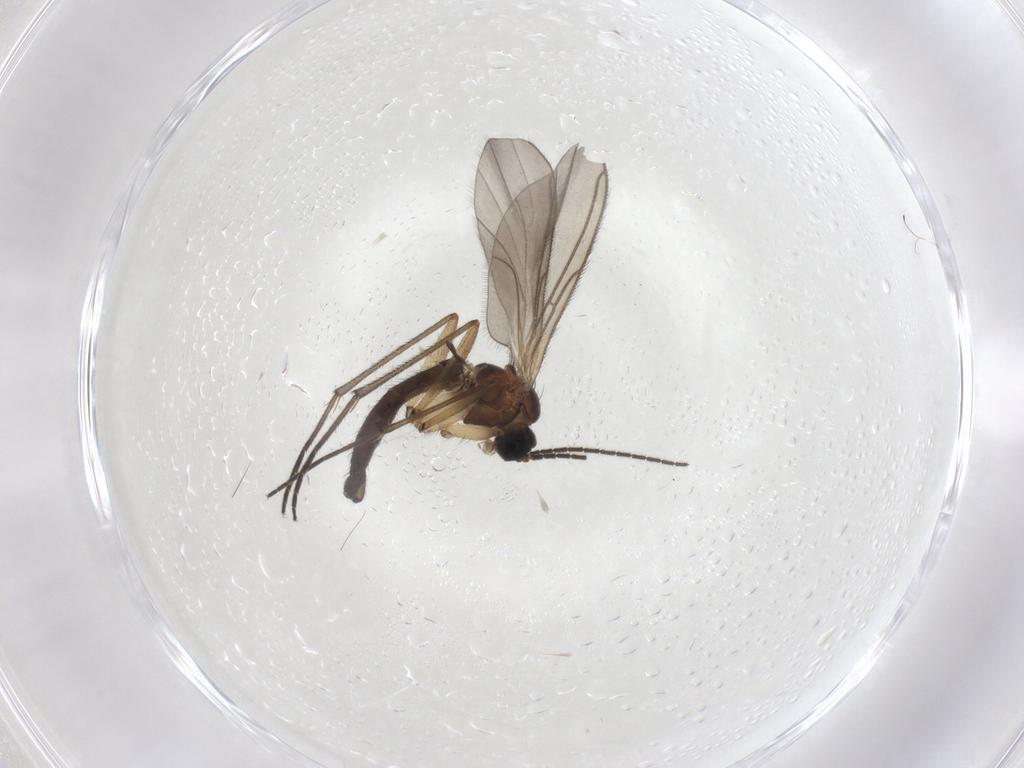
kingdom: Animalia
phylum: Arthropoda
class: Insecta
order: Diptera
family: Sciaridae
